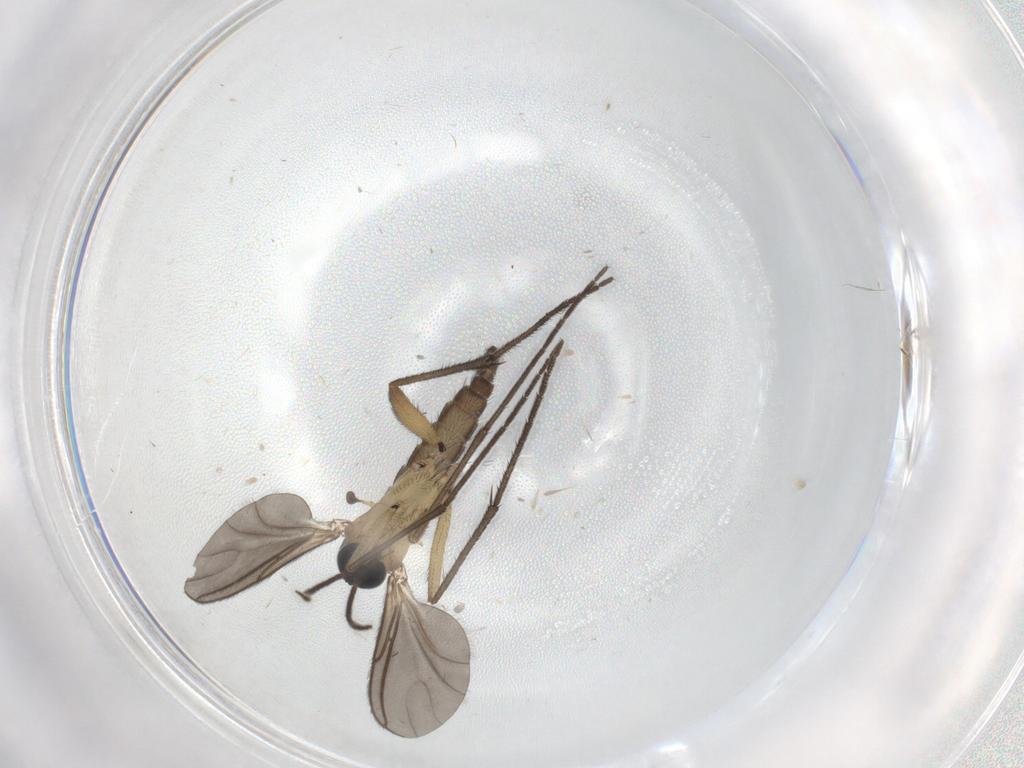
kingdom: Animalia
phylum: Arthropoda
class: Insecta
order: Diptera
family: Sciaridae
